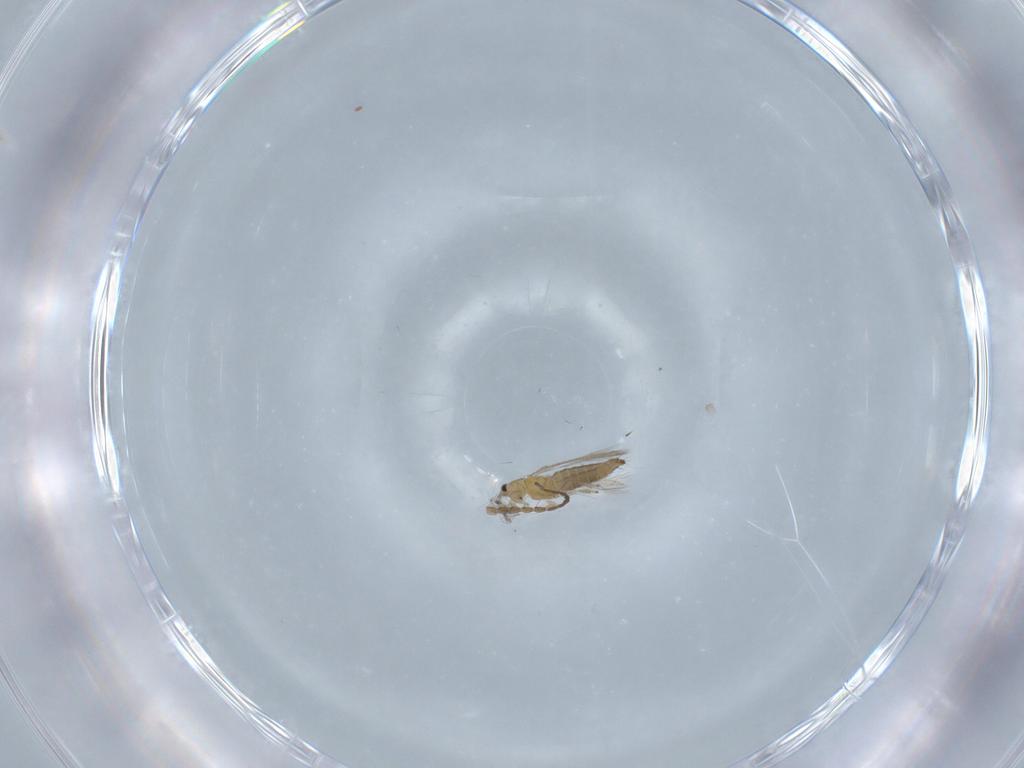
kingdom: Animalia
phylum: Arthropoda
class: Insecta
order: Thysanoptera
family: Thripidae
